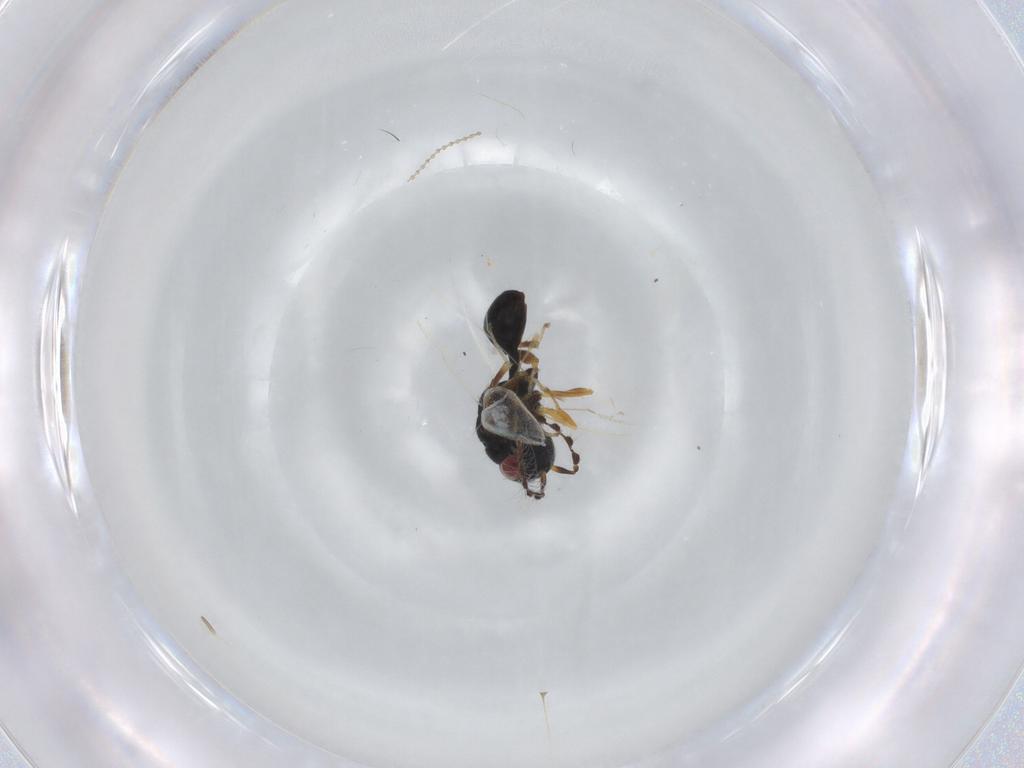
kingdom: Animalia
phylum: Arthropoda
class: Insecta
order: Hymenoptera
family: Eurytomidae
